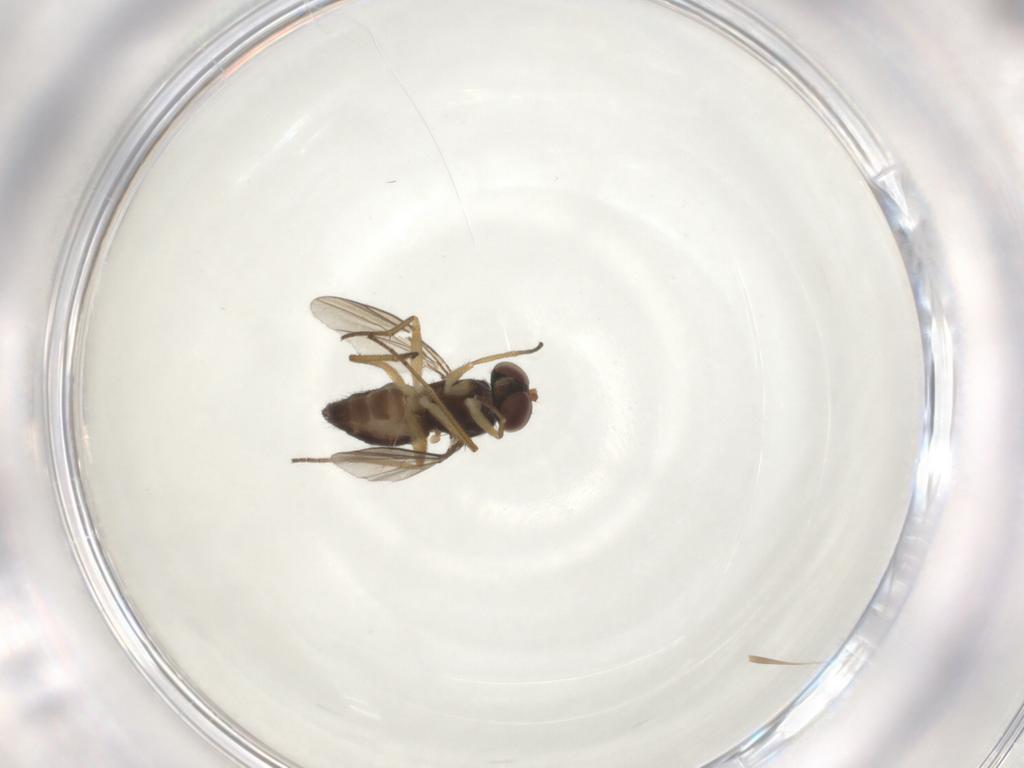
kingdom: Animalia
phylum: Arthropoda
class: Insecta
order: Diptera
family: Dolichopodidae
